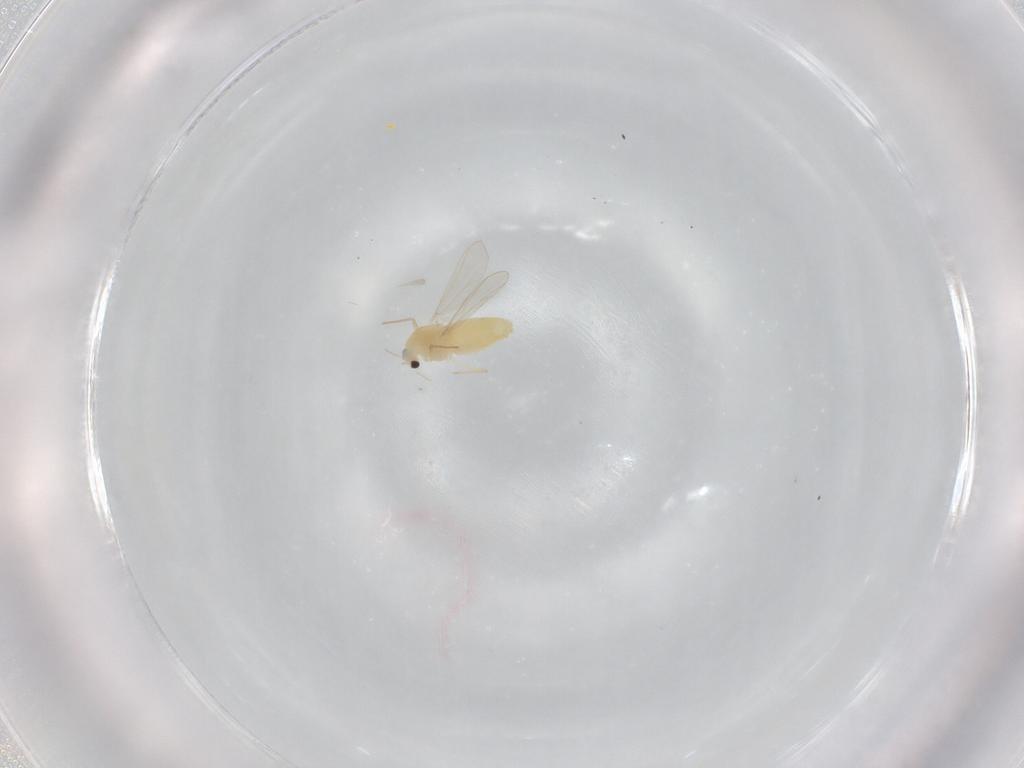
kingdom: Animalia
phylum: Arthropoda
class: Insecta
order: Diptera
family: Chironomidae
